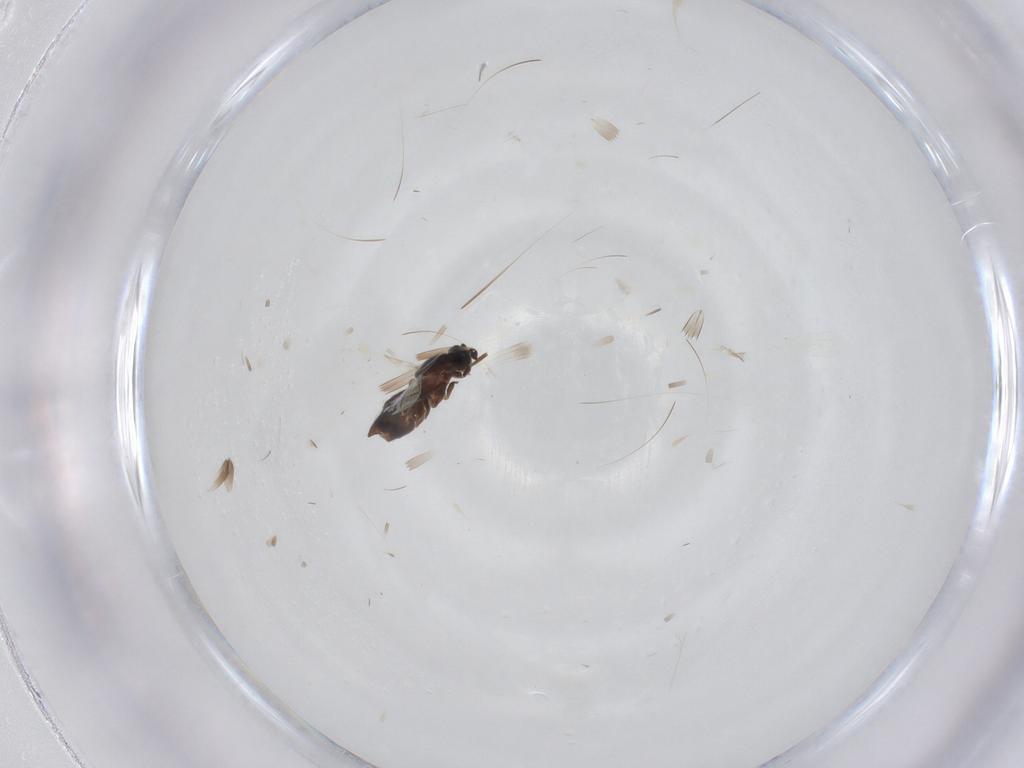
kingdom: Animalia
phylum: Arthropoda
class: Insecta
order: Diptera
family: Scatopsidae
